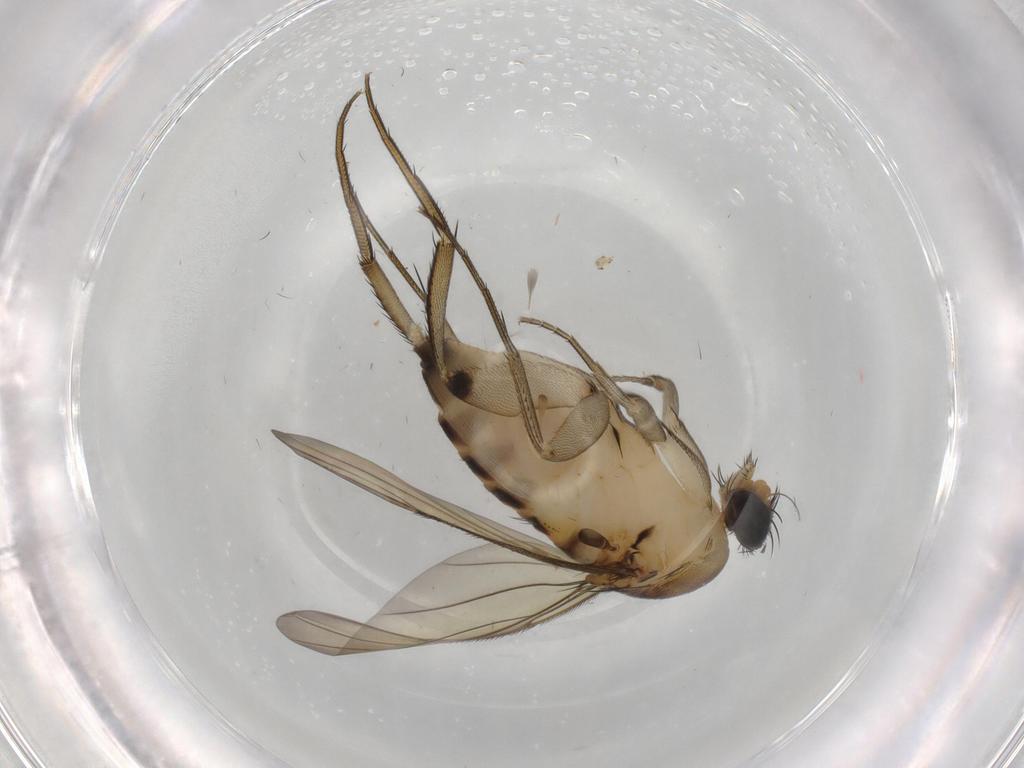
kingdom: Animalia
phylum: Arthropoda
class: Insecta
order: Diptera
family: Phoridae
